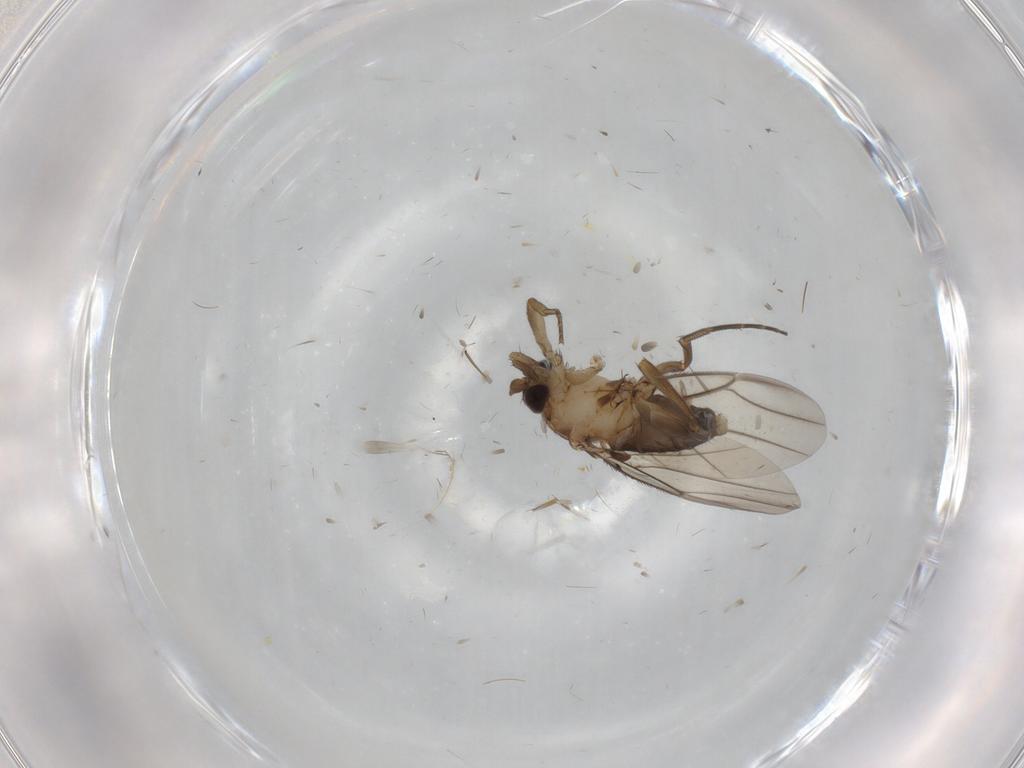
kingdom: Animalia
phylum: Arthropoda
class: Insecta
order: Diptera
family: Phoridae
